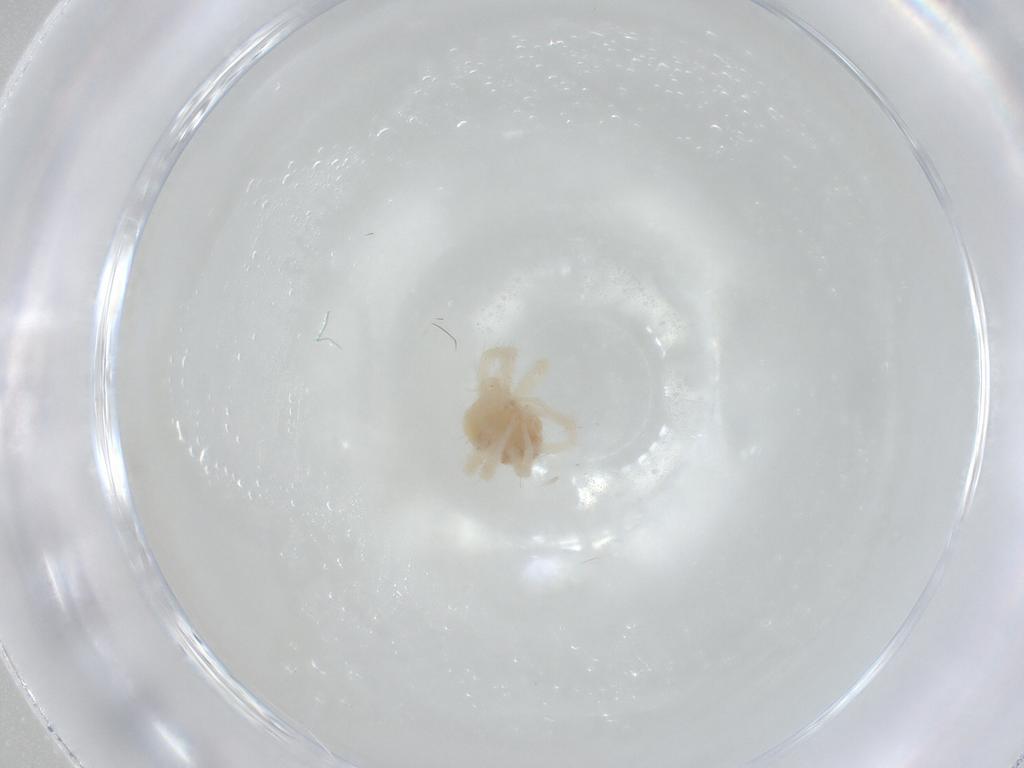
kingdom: Animalia
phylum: Arthropoda
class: Arachnida
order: Trombidiformes
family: Anystidae
